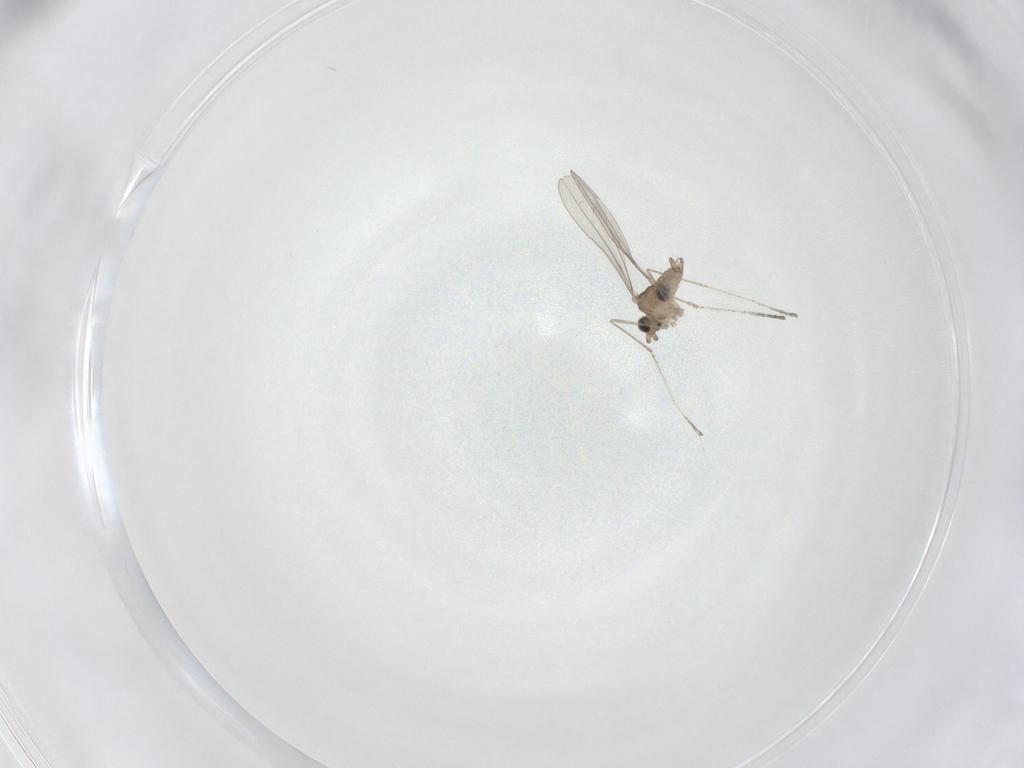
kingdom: Animalia
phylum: Arthropoda
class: Insecta
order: Diptera
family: Cecidomyiidae
